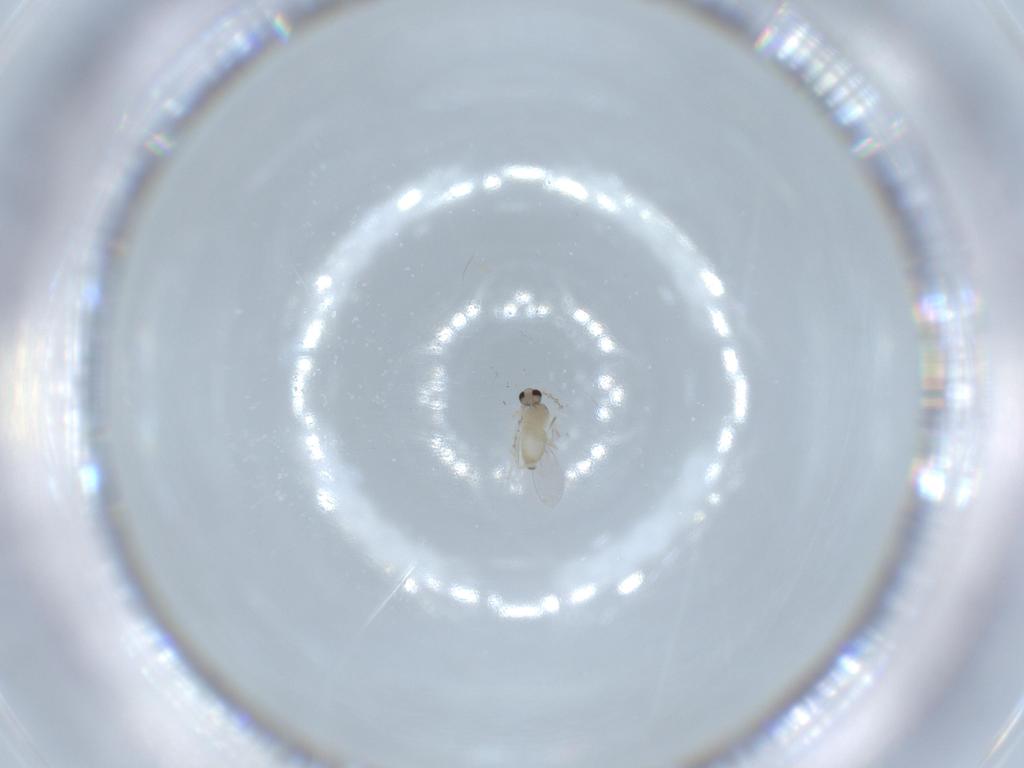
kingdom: Animalia
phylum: Arthropoda
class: Insecta
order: Diptera
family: Cecidomyiidae
